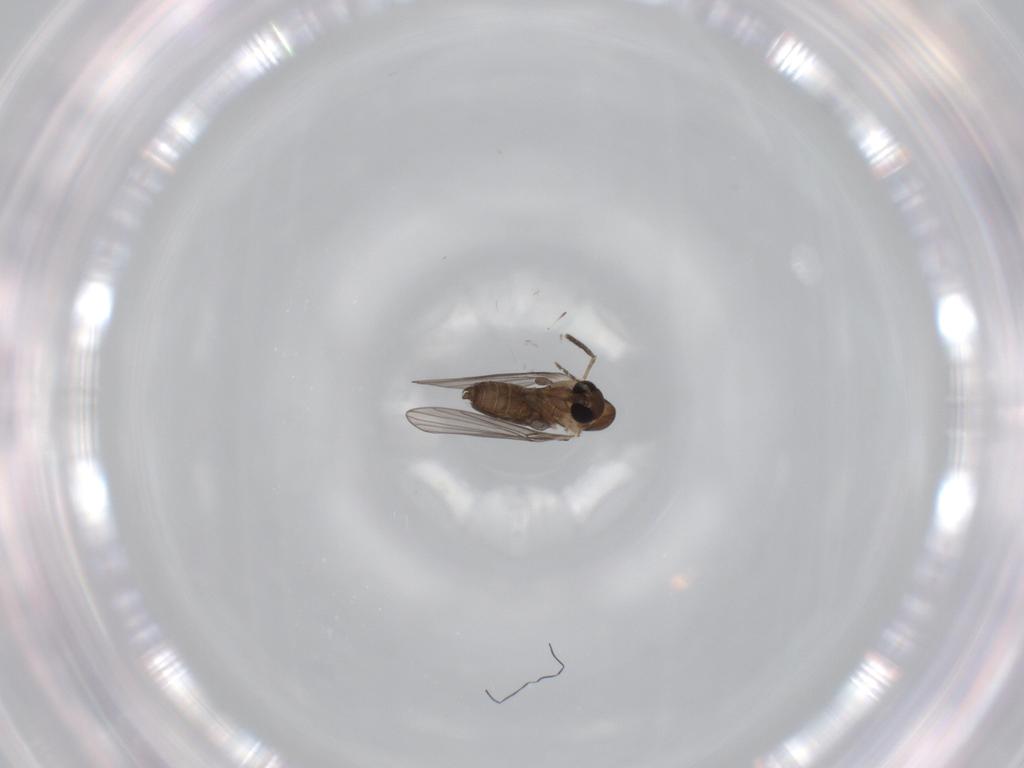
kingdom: Animalia
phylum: Arthropoda
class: Insecta
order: Diptera
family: Psychodidae
